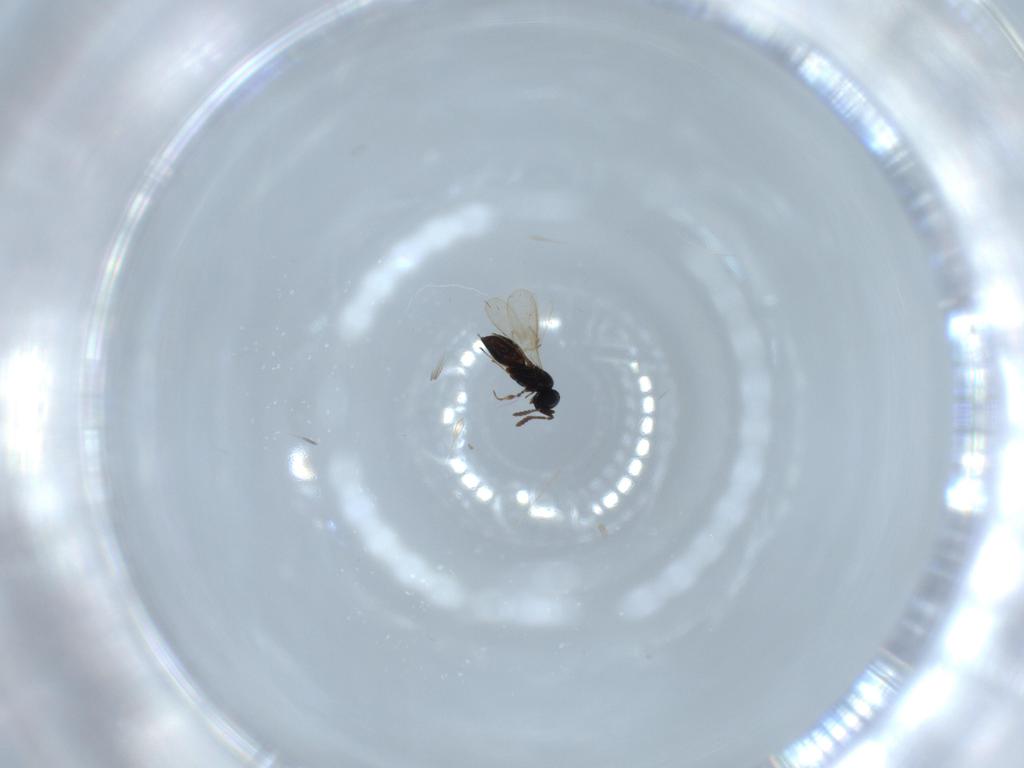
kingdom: Animalia
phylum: Arthropoda
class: Insecta
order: Hymenoptera
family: Scelionidae
